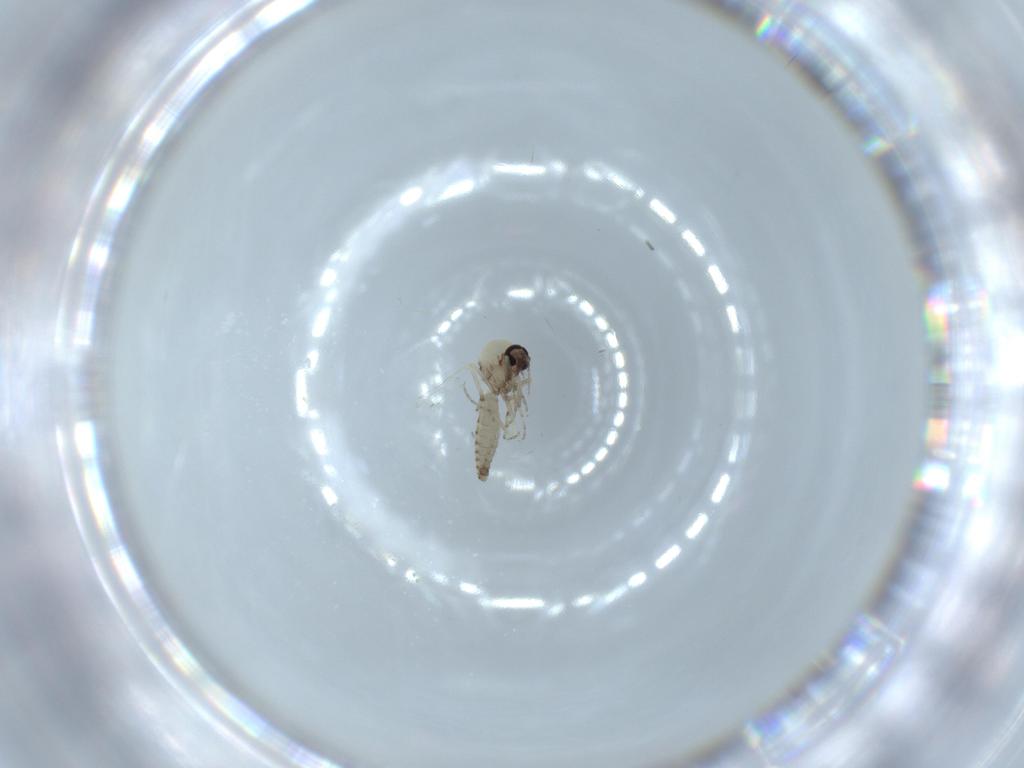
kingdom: Animalia
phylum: Arthropoda
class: Insecta
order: Diptera
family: Ceratopogonidae
